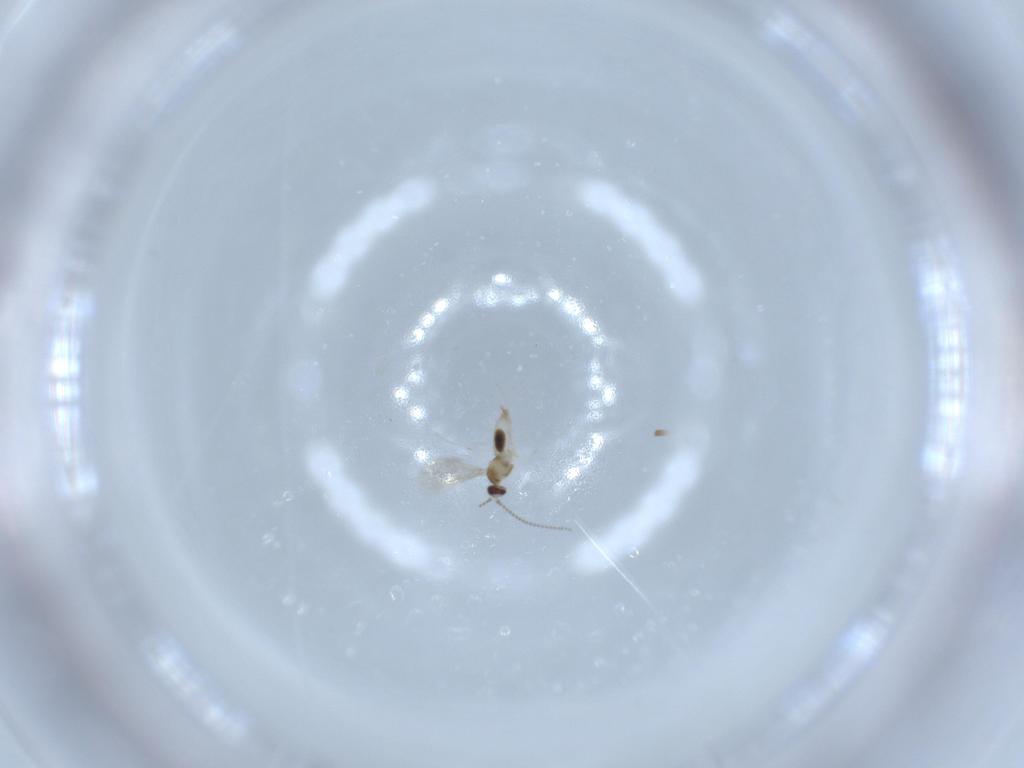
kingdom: Animalia
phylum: Arthropoda
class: Insecta
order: Diptera
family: Cecidomyiidae
